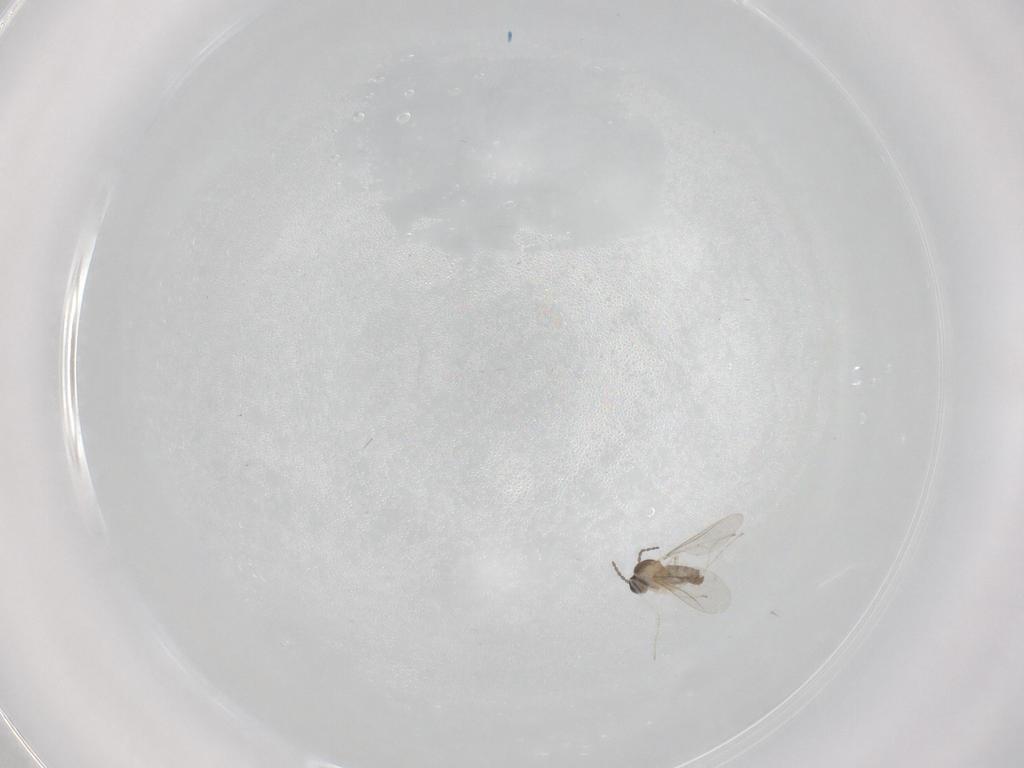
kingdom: Animalia
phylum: Arthropoda
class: Insecta
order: Diptera
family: Cecidomyiidae
